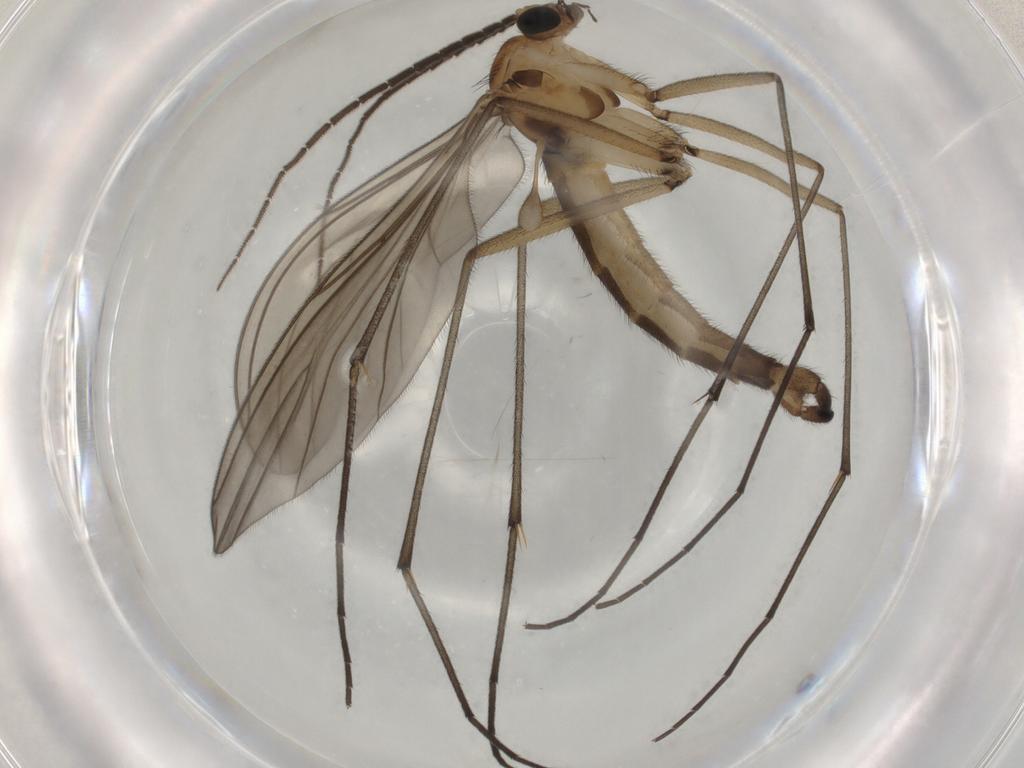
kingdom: Animalia
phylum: Arthropoda
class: Insecta
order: Diptera
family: Sciaridae
